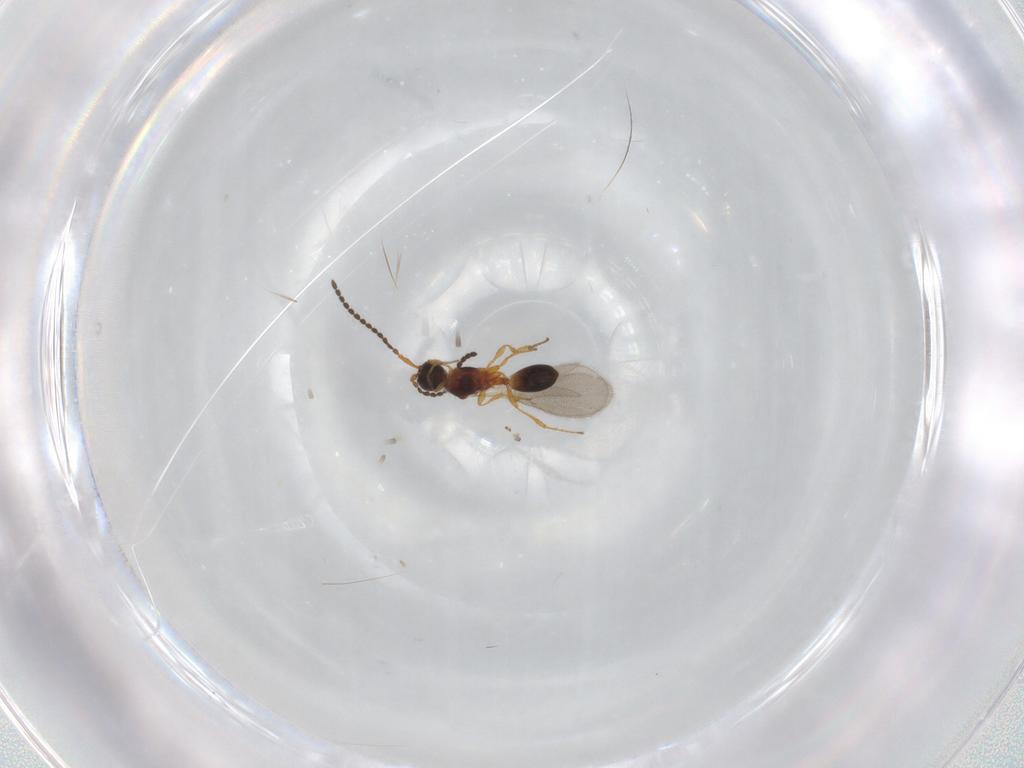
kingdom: Animalia
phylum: Arthropoda
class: Insecta
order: Hymenoptera
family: Diapriidae
